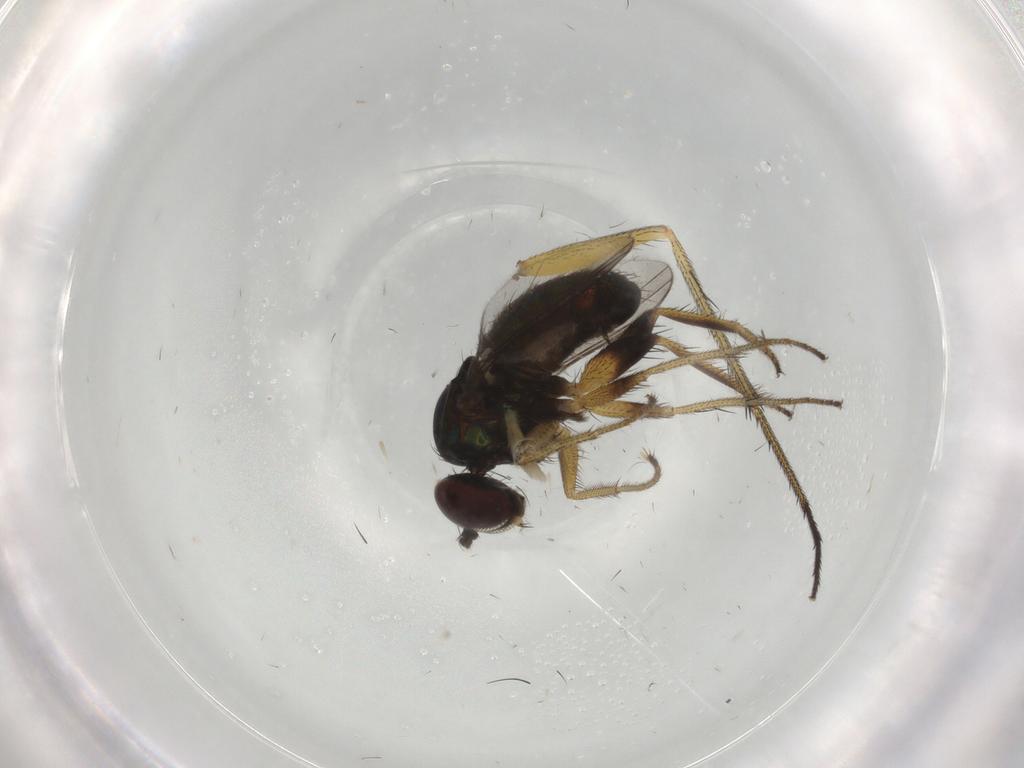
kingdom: Animalia
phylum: Arthropoda
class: Insecta
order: Diptera
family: Dolichopodidae
